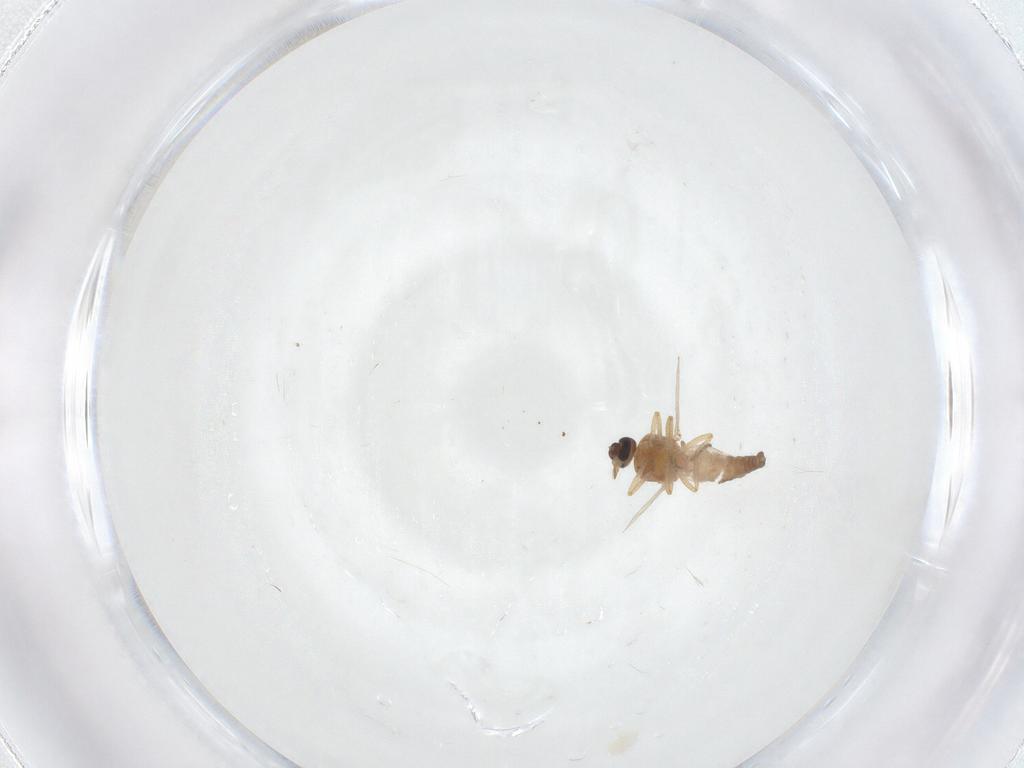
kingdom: Animalia
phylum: Arthropoda
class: Insecta
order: Diptera
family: Ceratopogonidae
